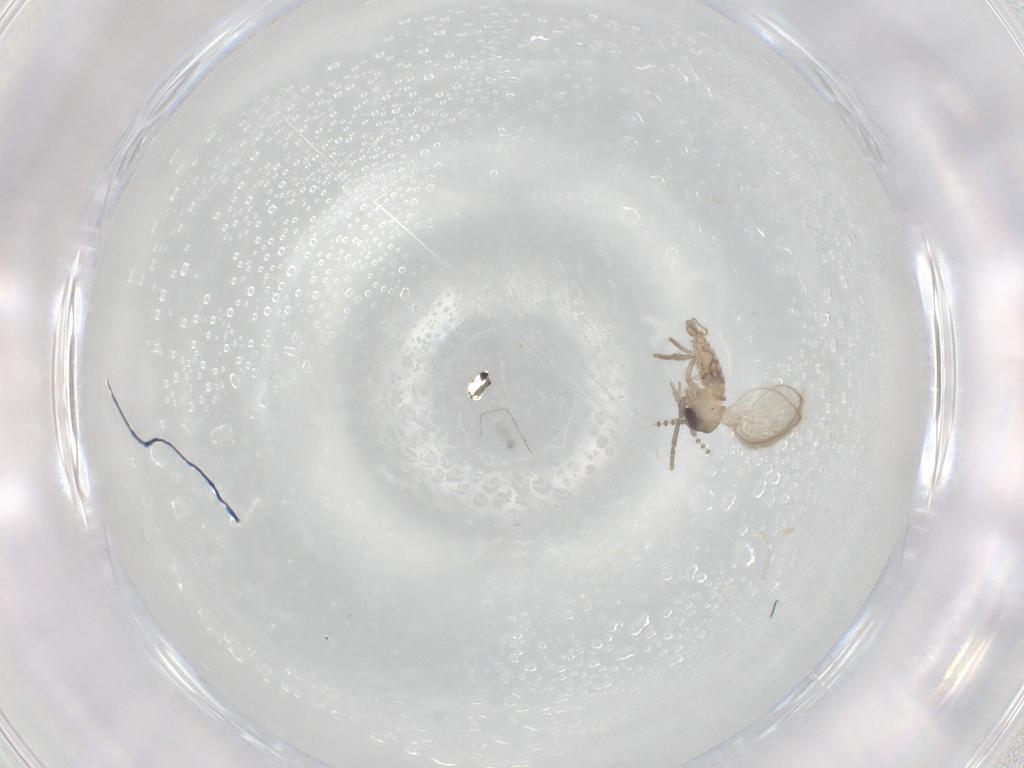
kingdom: Animalia
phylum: Arthropoda
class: Insecta
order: Diptera
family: Psychodidae
